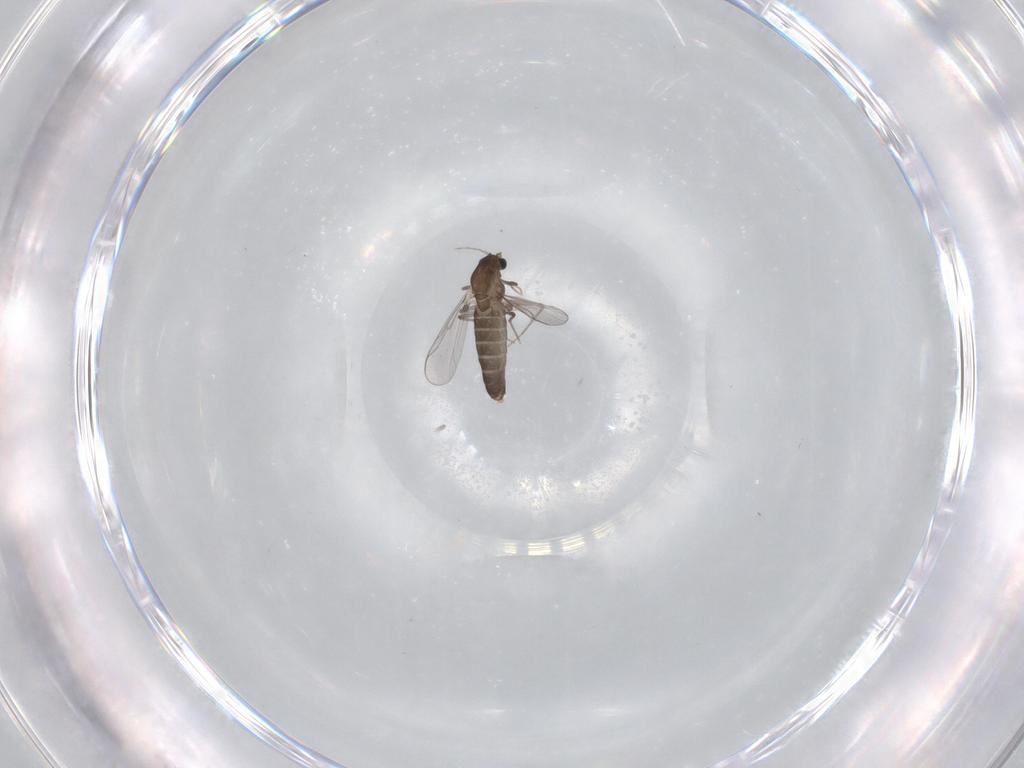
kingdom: Animalia
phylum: Arthropoda
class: Insecta
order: Diptera
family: Chironomidae
